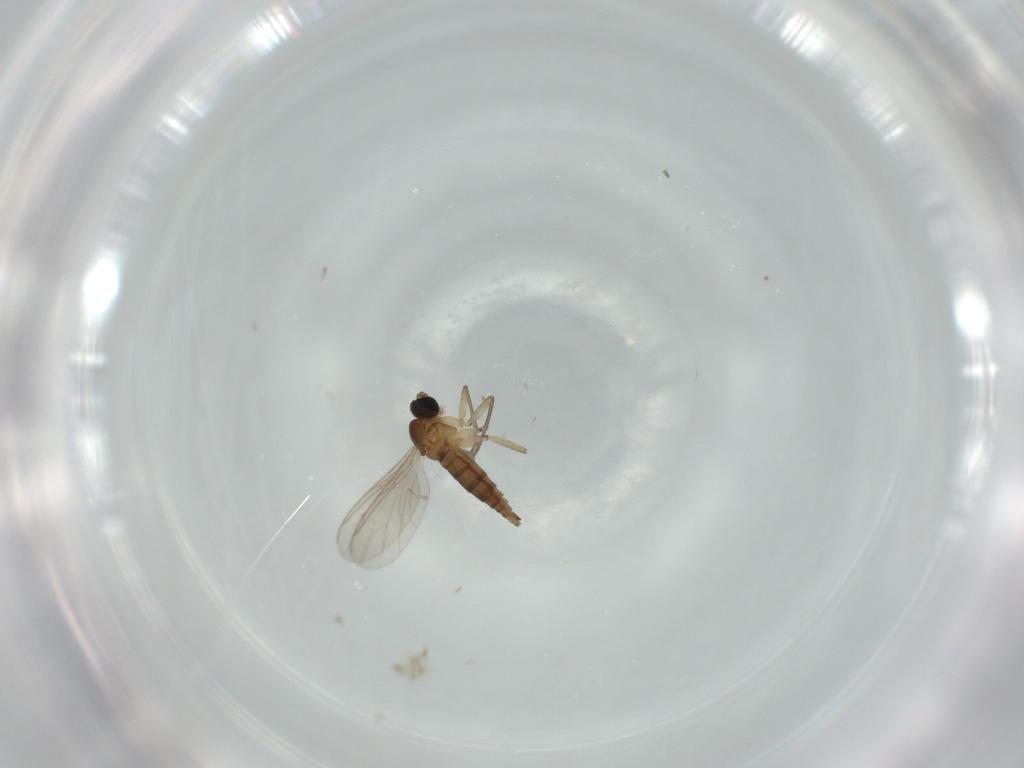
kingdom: Animalia
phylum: Arthropoda
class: Insecta
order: Diptera
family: Sciaridae
